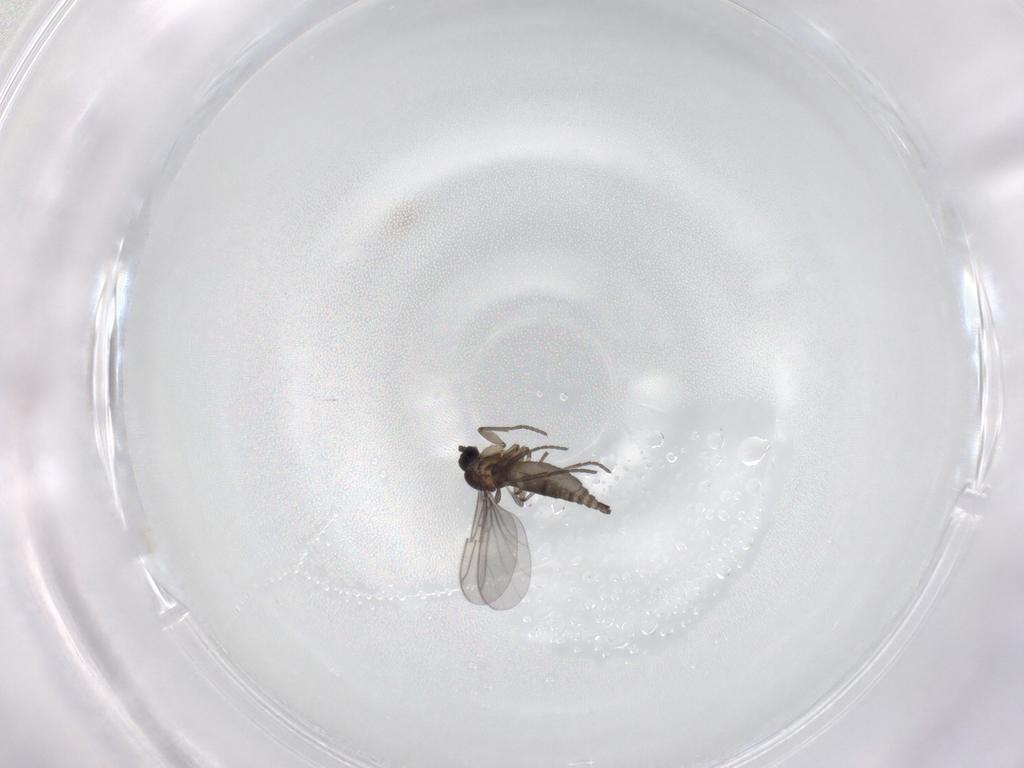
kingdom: Animalia
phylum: Arthropoda
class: Insecta
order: Diptera
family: Dolichopodidae
